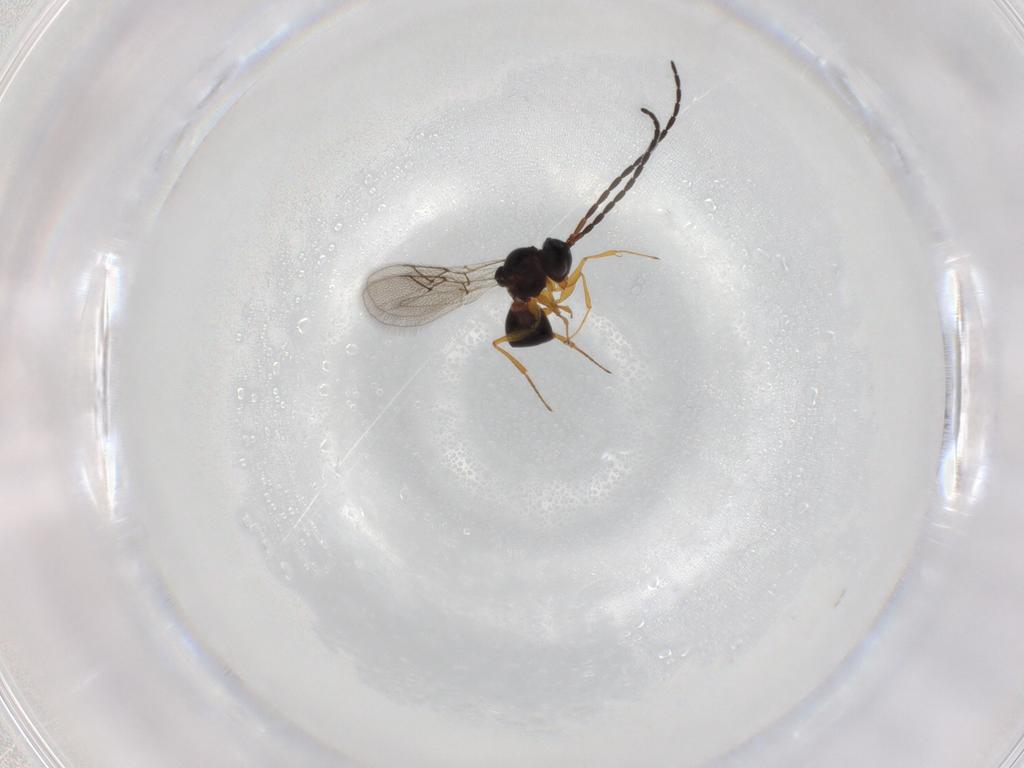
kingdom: Animalia
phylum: Arthropoda
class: Insecta
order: Hymenoptera
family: Figitidae
